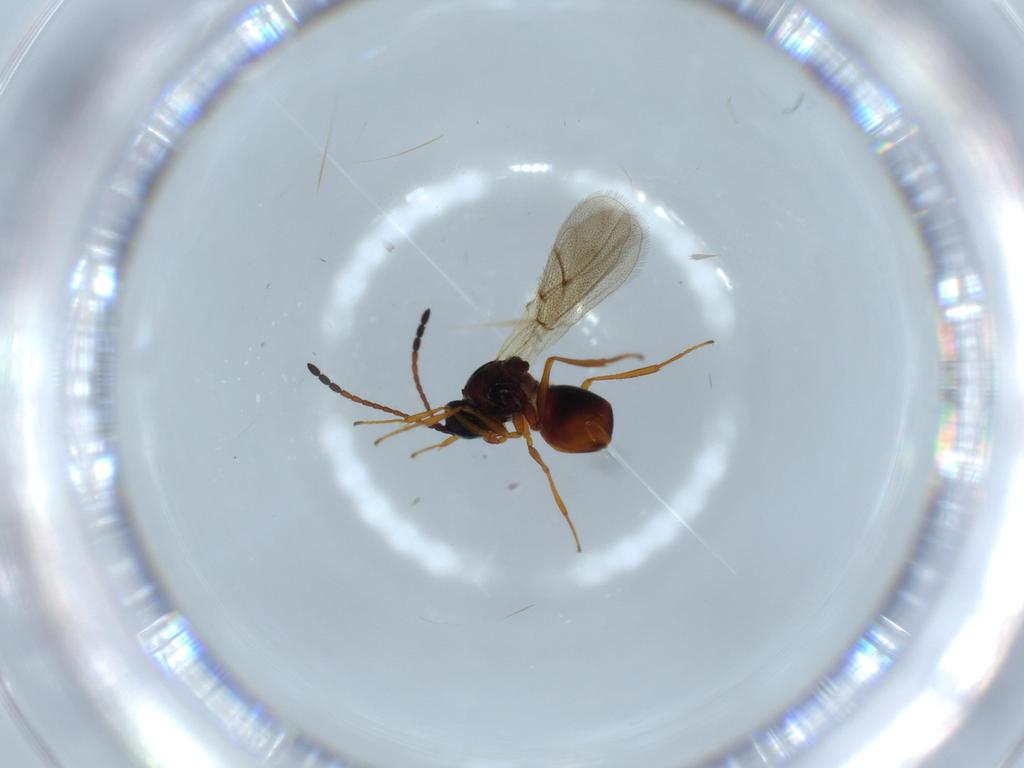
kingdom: Animalia
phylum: Arthropoda
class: Insecta
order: Hymenoptera
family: Figitidae
